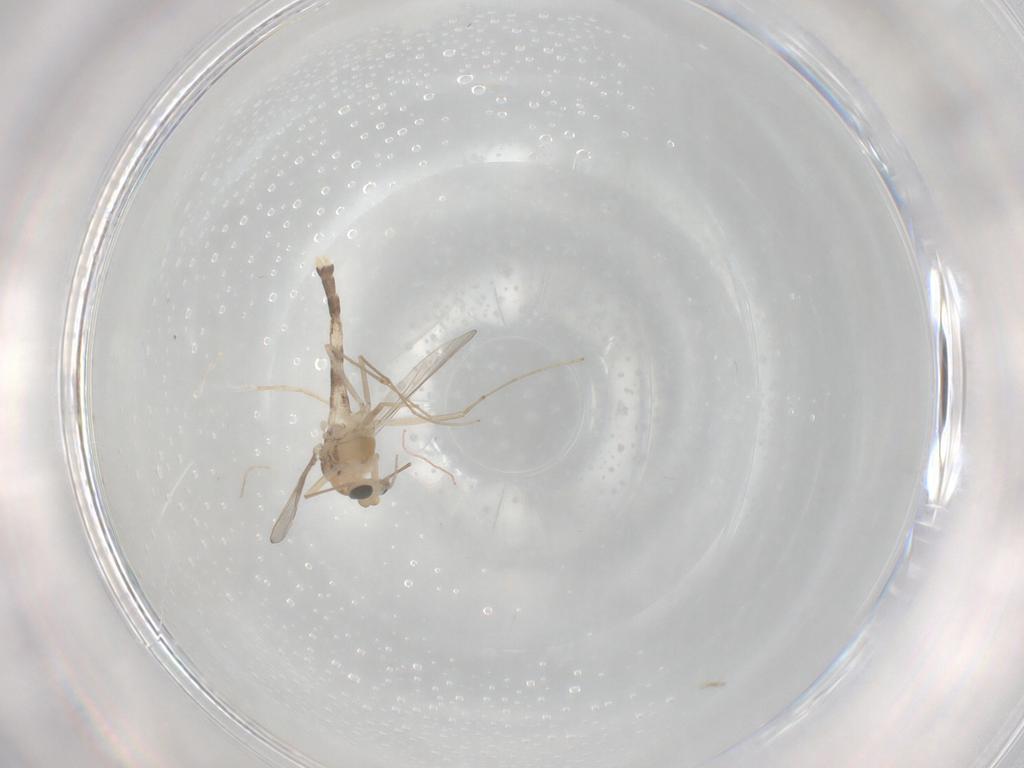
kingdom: Animalia
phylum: Arthropoda
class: Insecta
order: Diptera
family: Chironomidae
